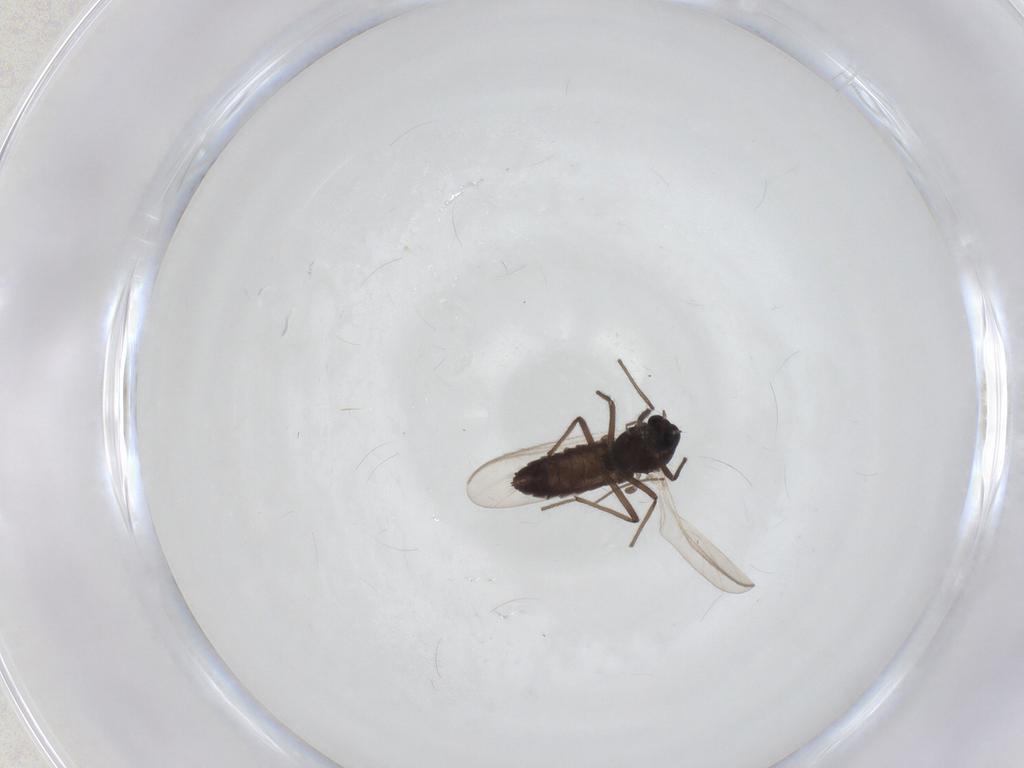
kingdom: Animalia
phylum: Arthropoda
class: Insecta
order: Diptera
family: Chironomidae
